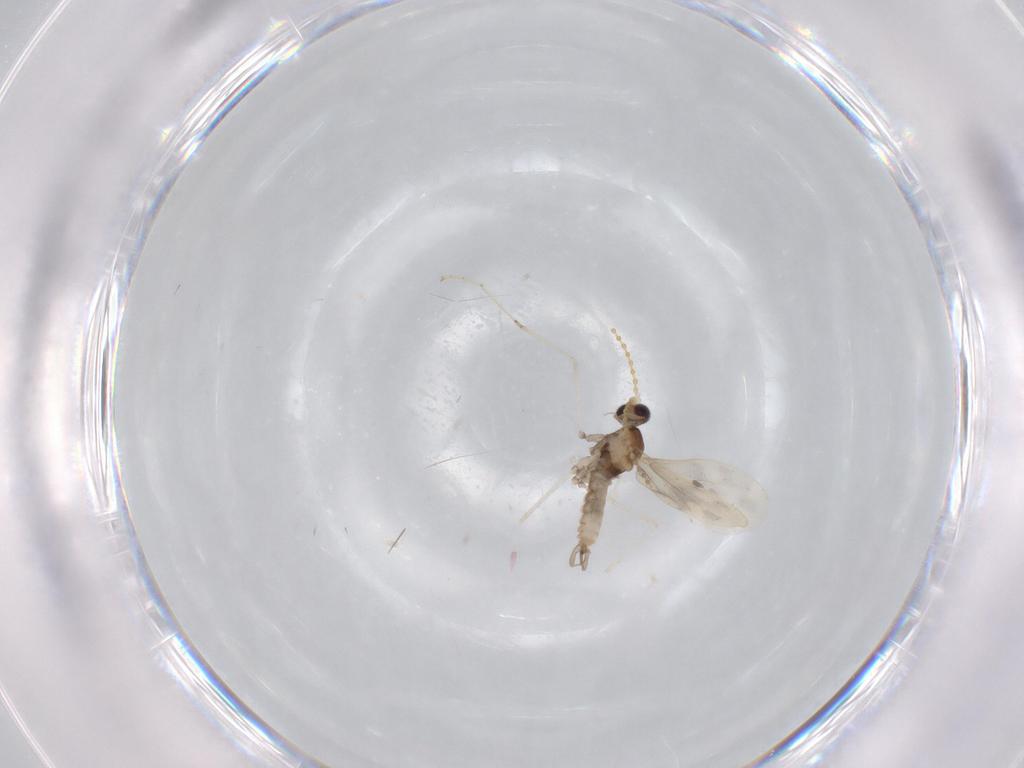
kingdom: Animalia
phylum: Arthropoda
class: Insecta
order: Diptera
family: Cecidomyiidae
